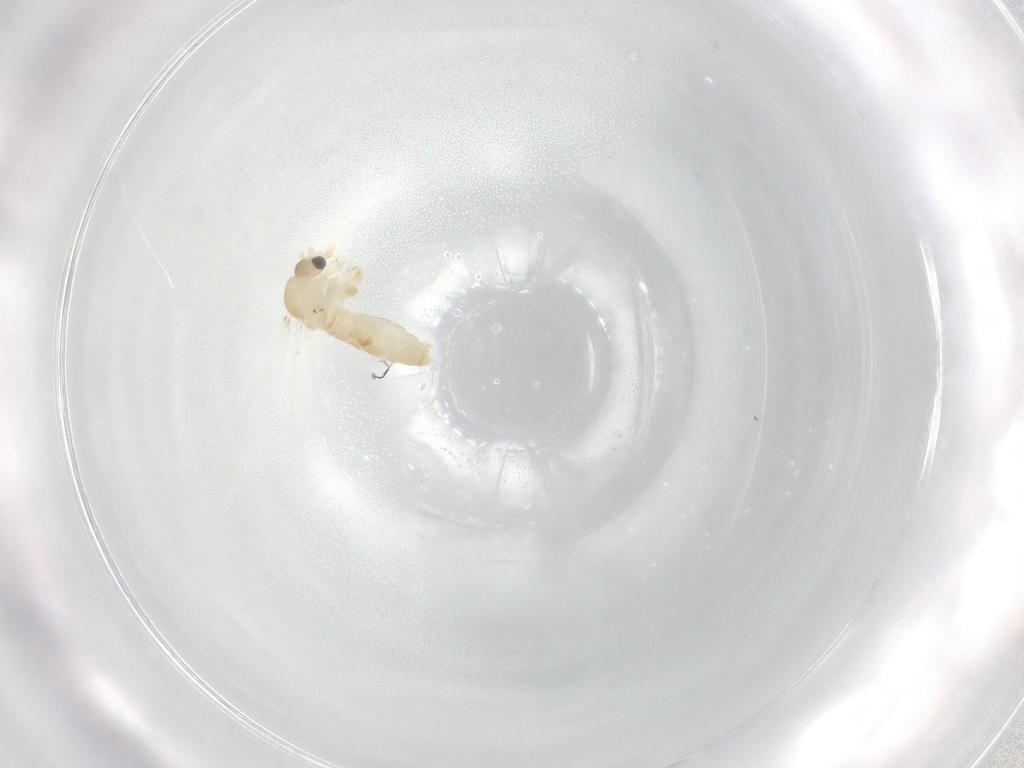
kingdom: Animalia
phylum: Arthropoda
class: Insecta
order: Diptera
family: Psychodidae
